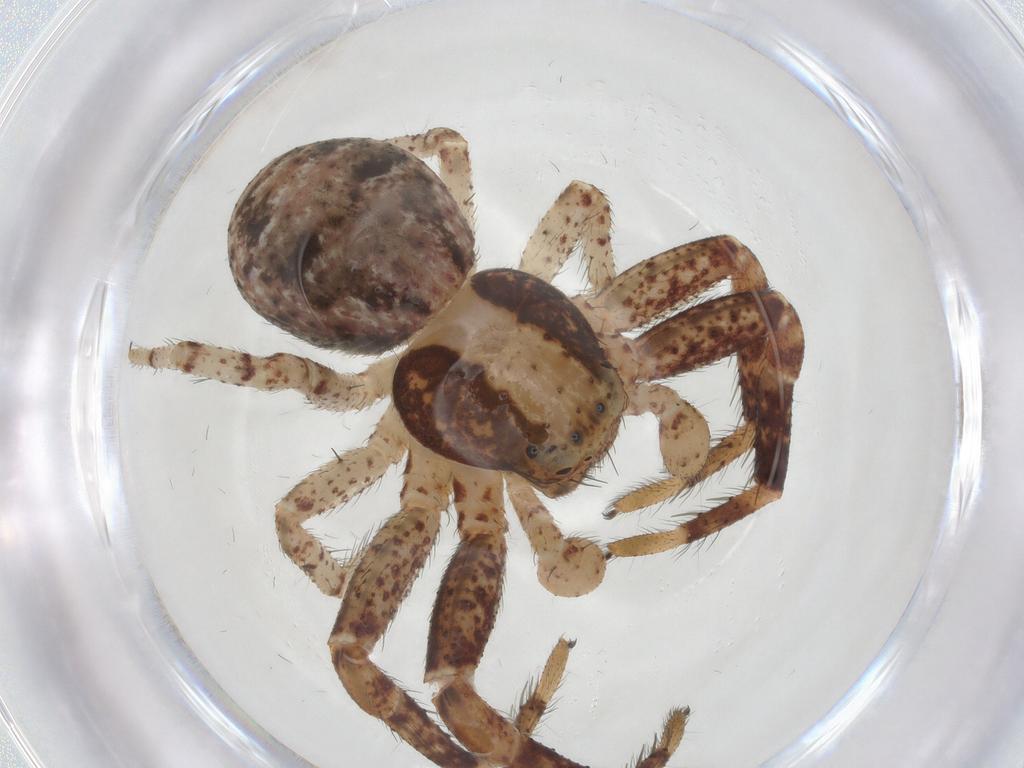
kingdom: Animalia
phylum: Arthropoda
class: Arachnida
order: Araneae
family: Thomisidae
